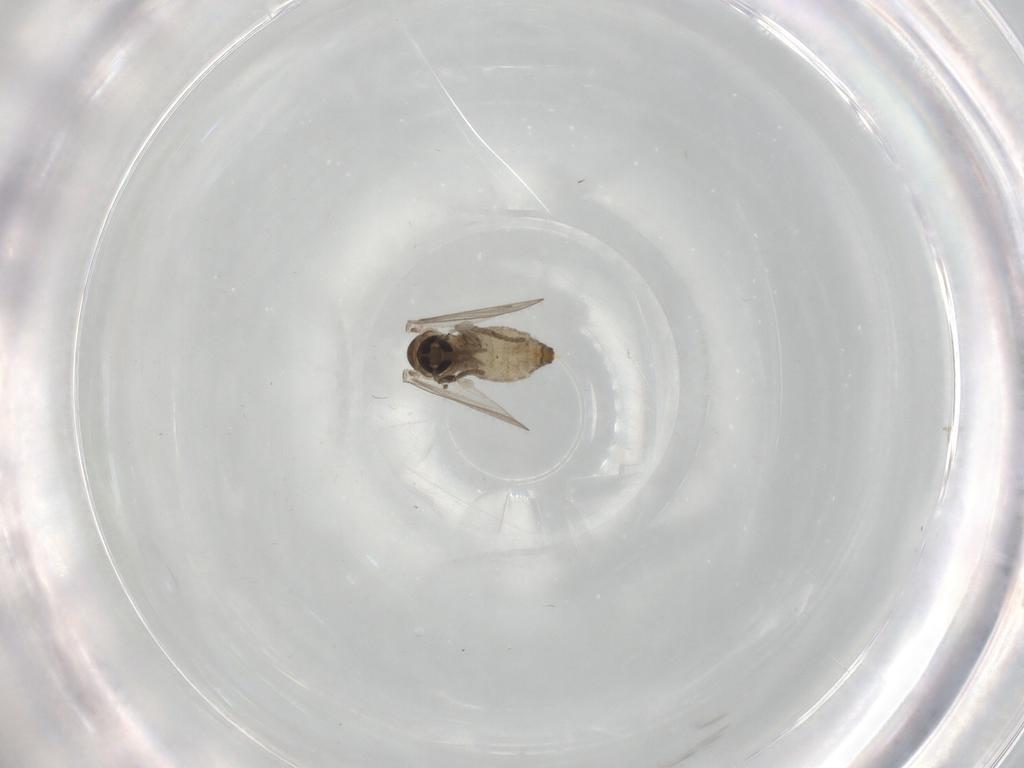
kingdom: Animalia
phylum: Arthropoda
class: Insecta
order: Diptera
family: Psychodidae
